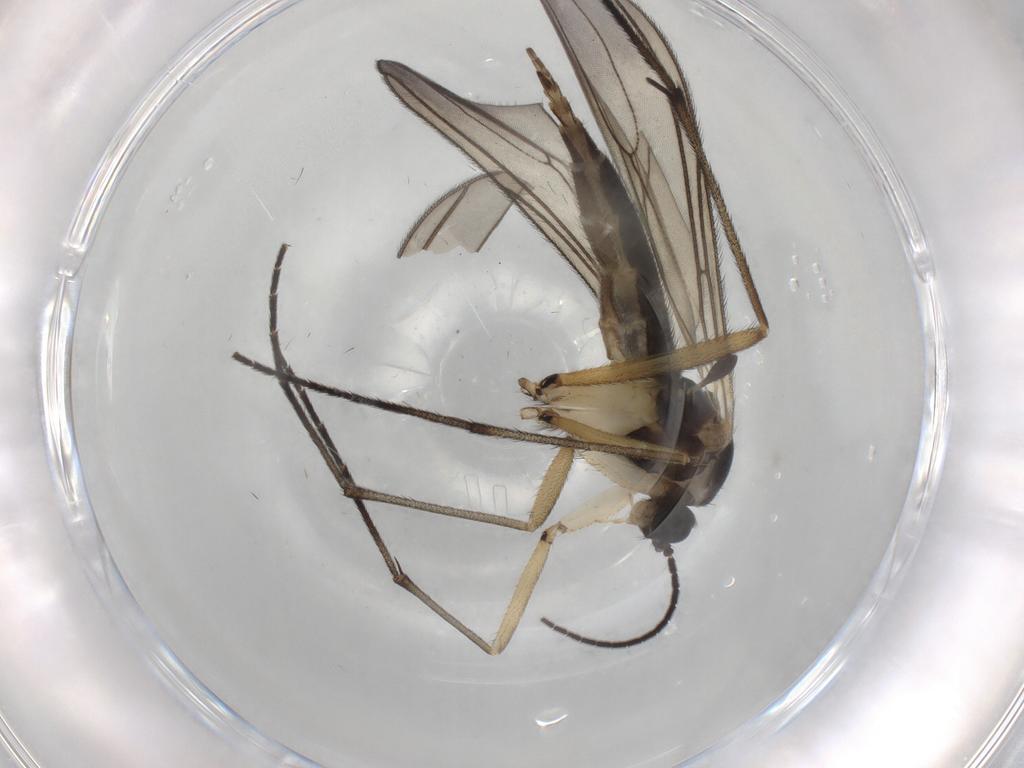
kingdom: Animalia
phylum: Arthropoda
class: Insecta
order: Diptera
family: Sciaridae
